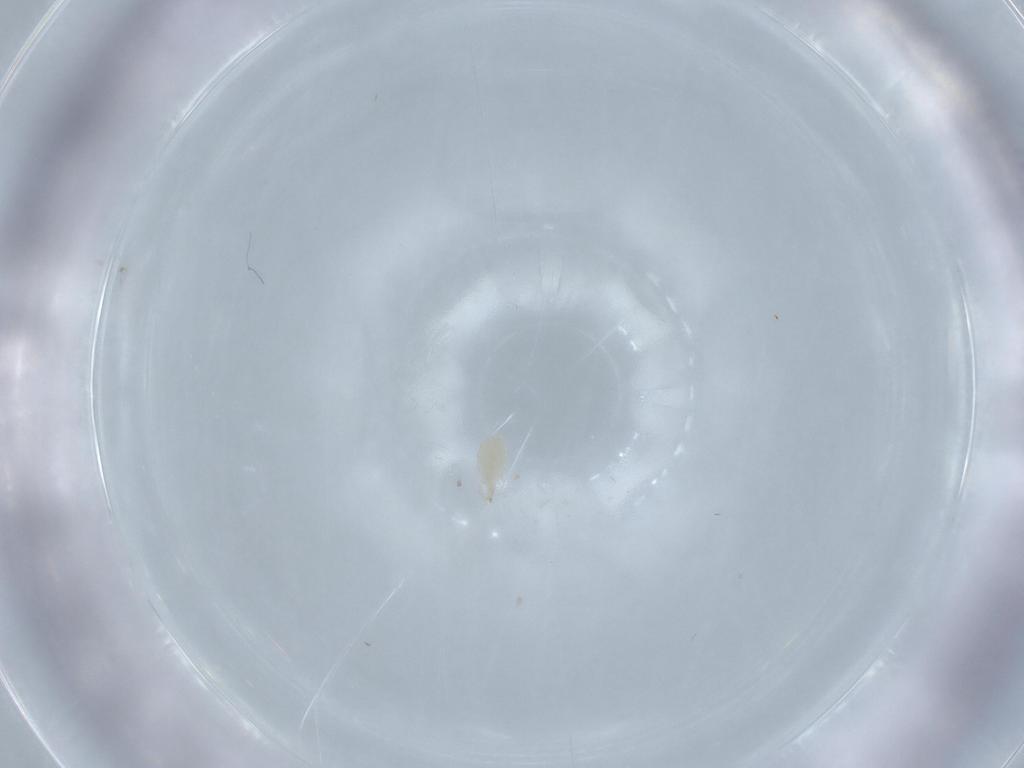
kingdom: Animalia
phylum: Arthropoda
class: Arachnida
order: Mesostigmata
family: Phytoseiidae
